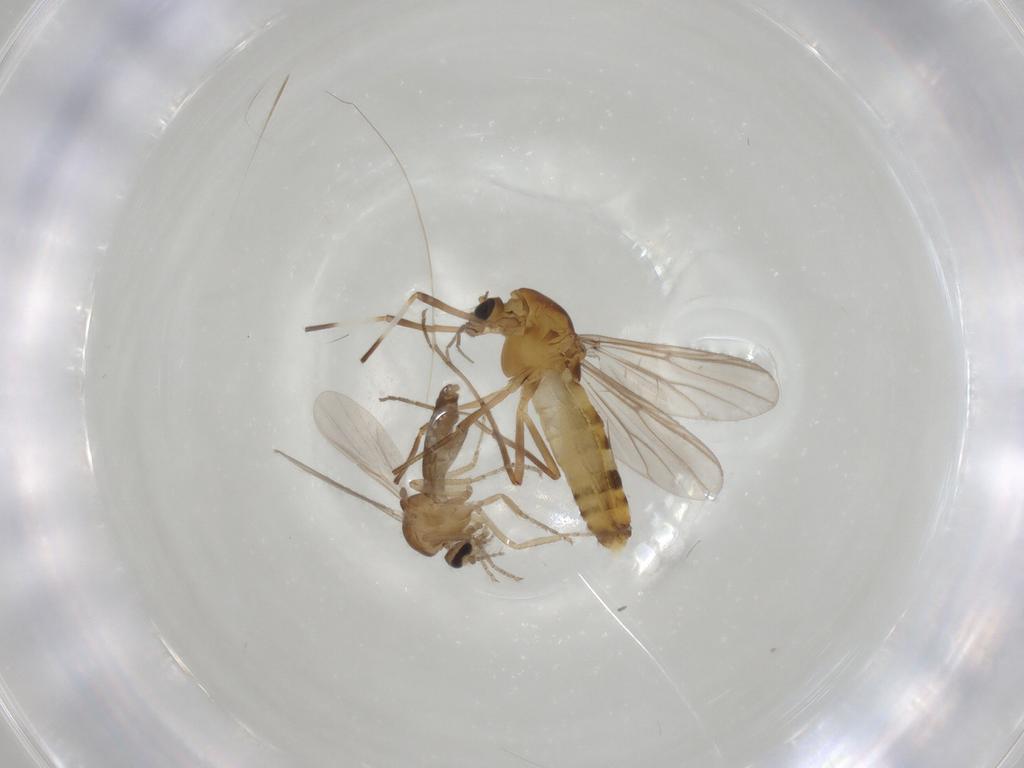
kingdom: Animalia
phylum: Arthropoda
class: Insecta
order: Diptera
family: Chironomidae
